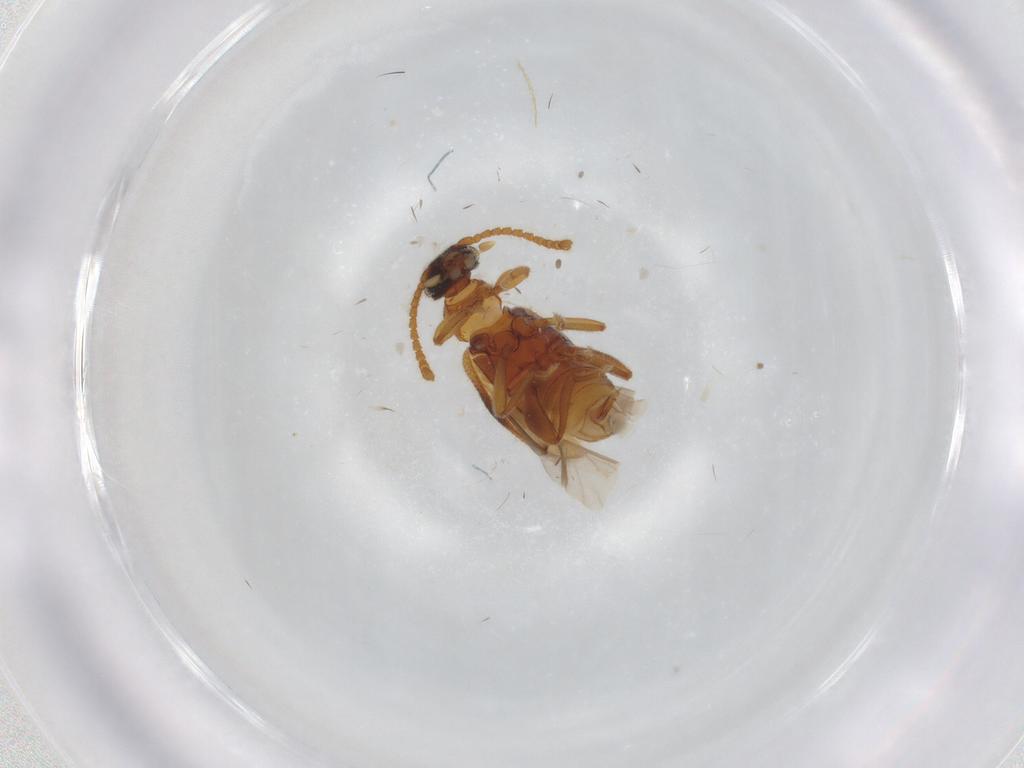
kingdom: Animalia
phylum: Arthropoda
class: Insecta
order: Coleoptera
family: Aderidae
